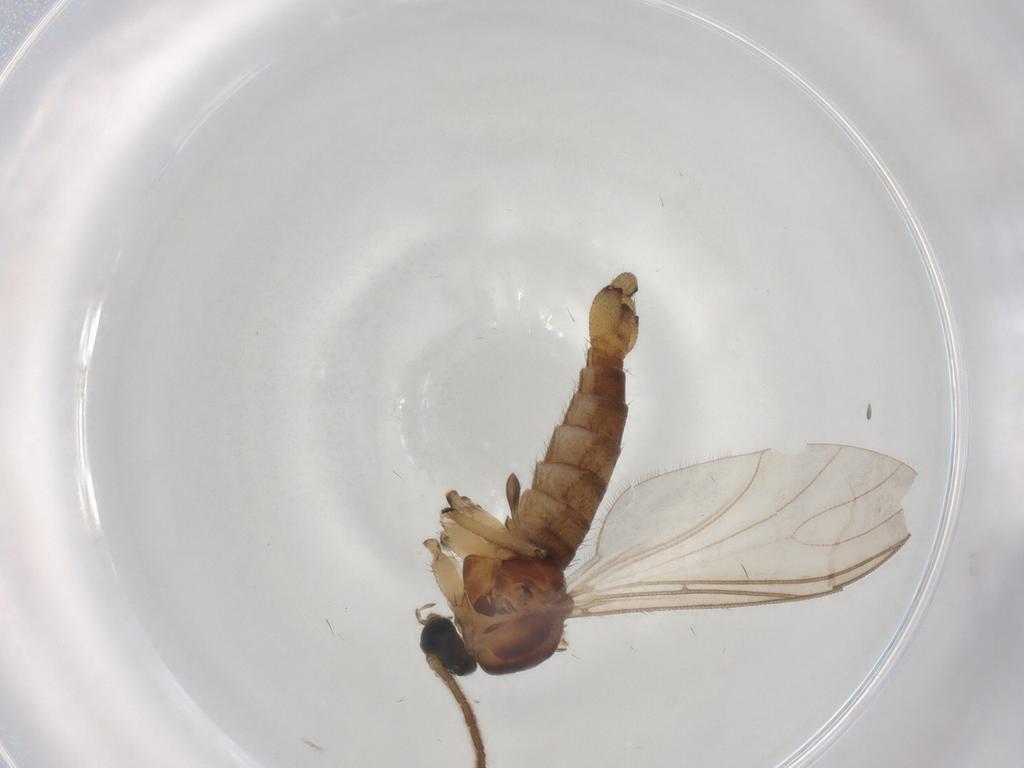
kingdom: Animalia
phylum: Arthropoda
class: Insecta
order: Diptera
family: Sciaridae
